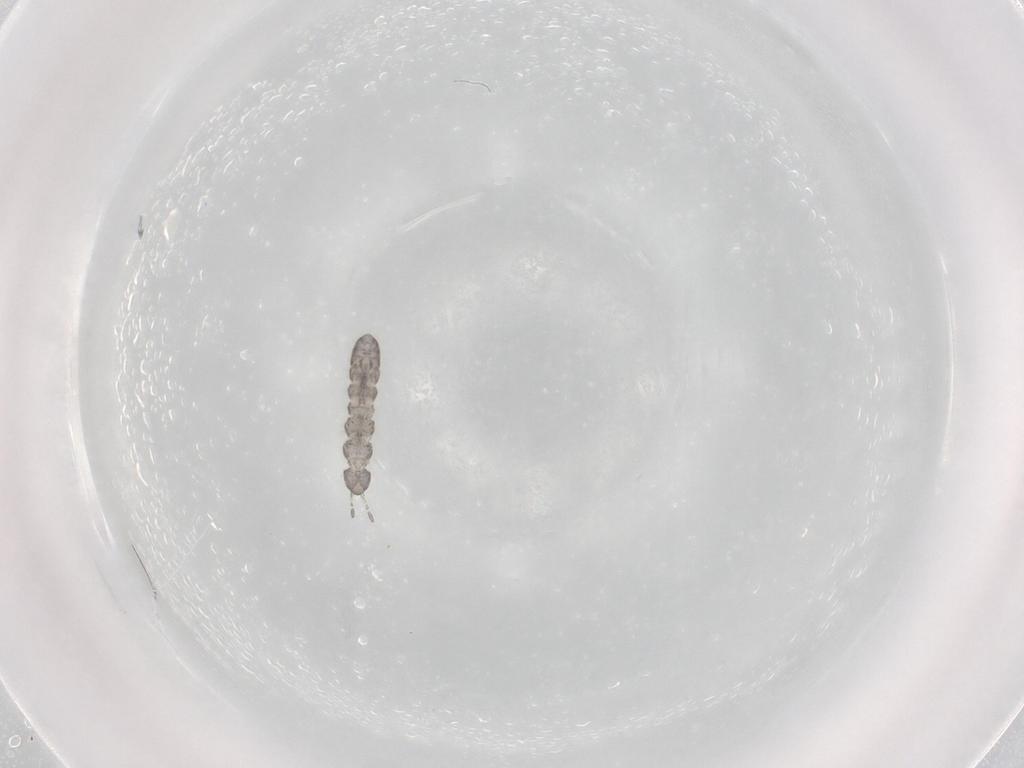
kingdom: Animalia
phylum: Arthropoda
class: Collembola
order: Entomobryomorpha
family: Isotomidae
